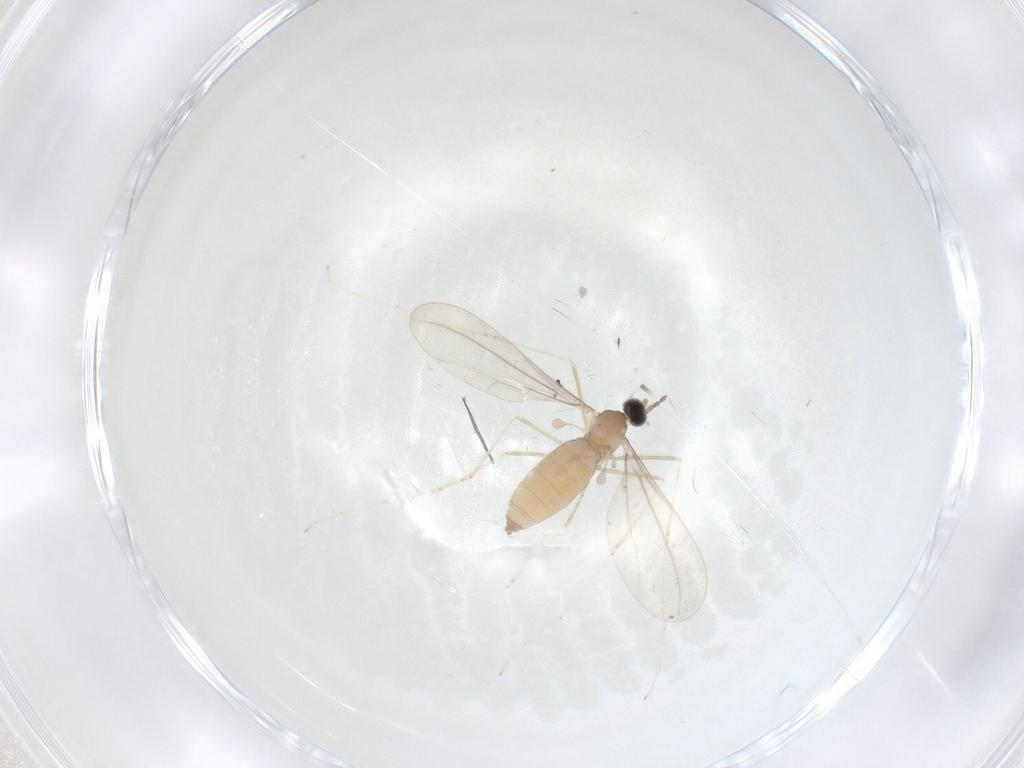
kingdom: Animalia
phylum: Arthropoda
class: Insecta
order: Diptera
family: Cecidomyiidae
